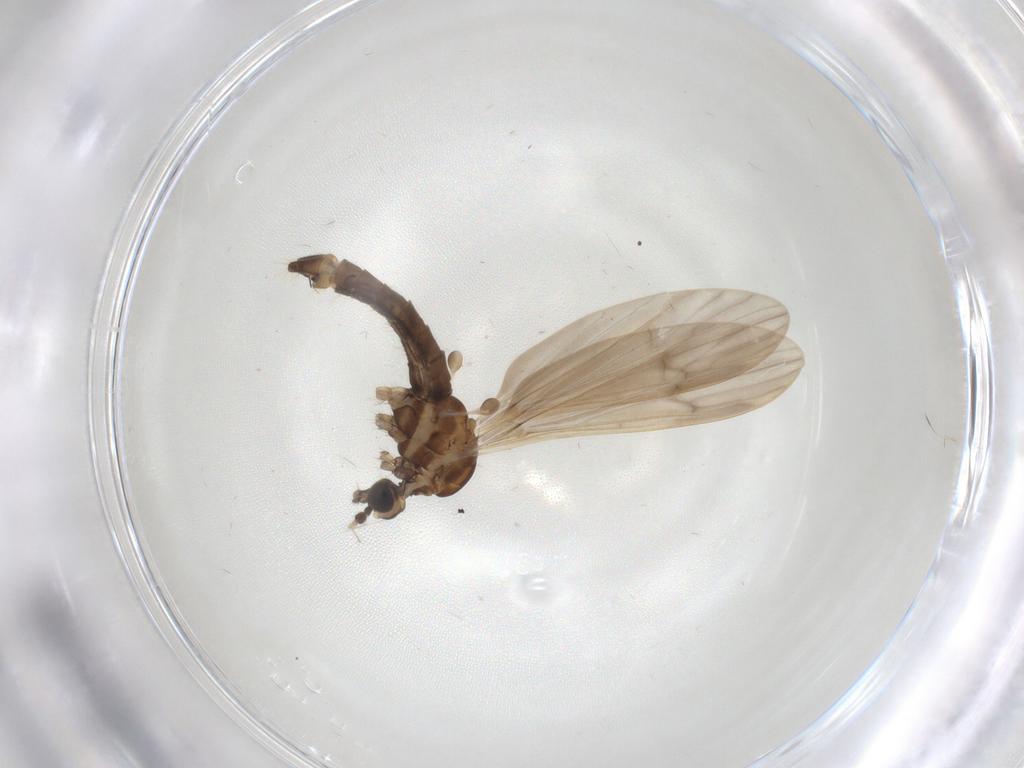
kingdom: Animalia
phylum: Arthropoda
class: Insecta
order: Diptera
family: Limoniidae
